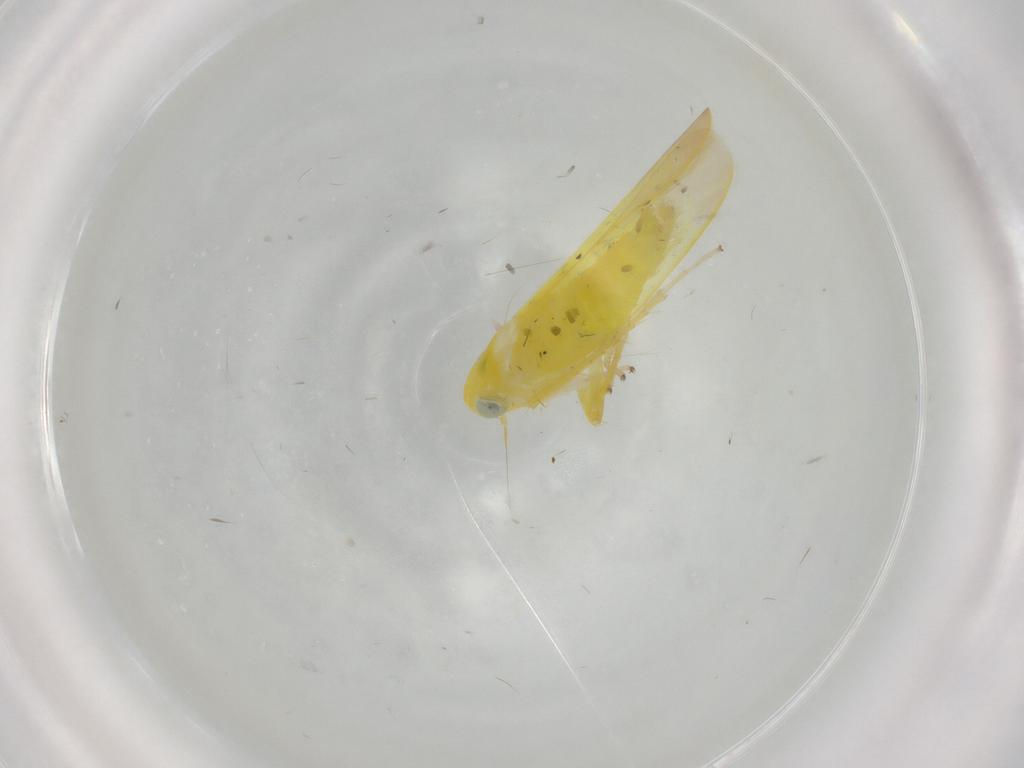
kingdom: Animalia
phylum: Arthropoda
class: Insecta
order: Hemiptera
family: Cicadellidae
